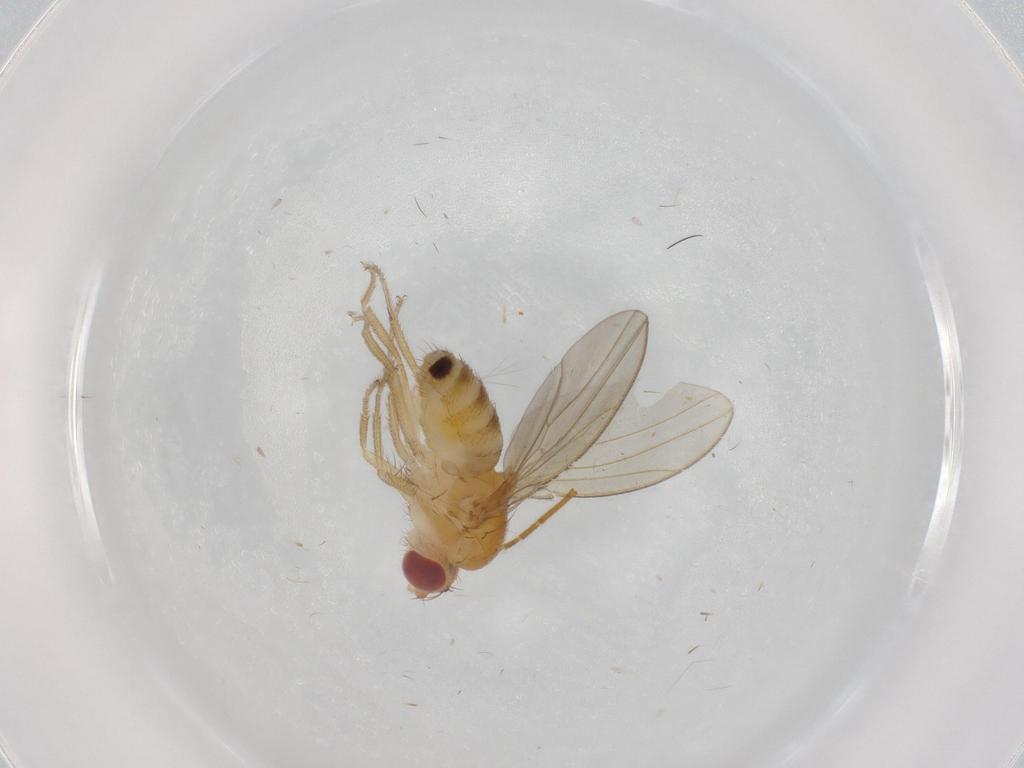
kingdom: Animalia
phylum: Arthropoda
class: Insecta
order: Diptera
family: Drosophilidae
